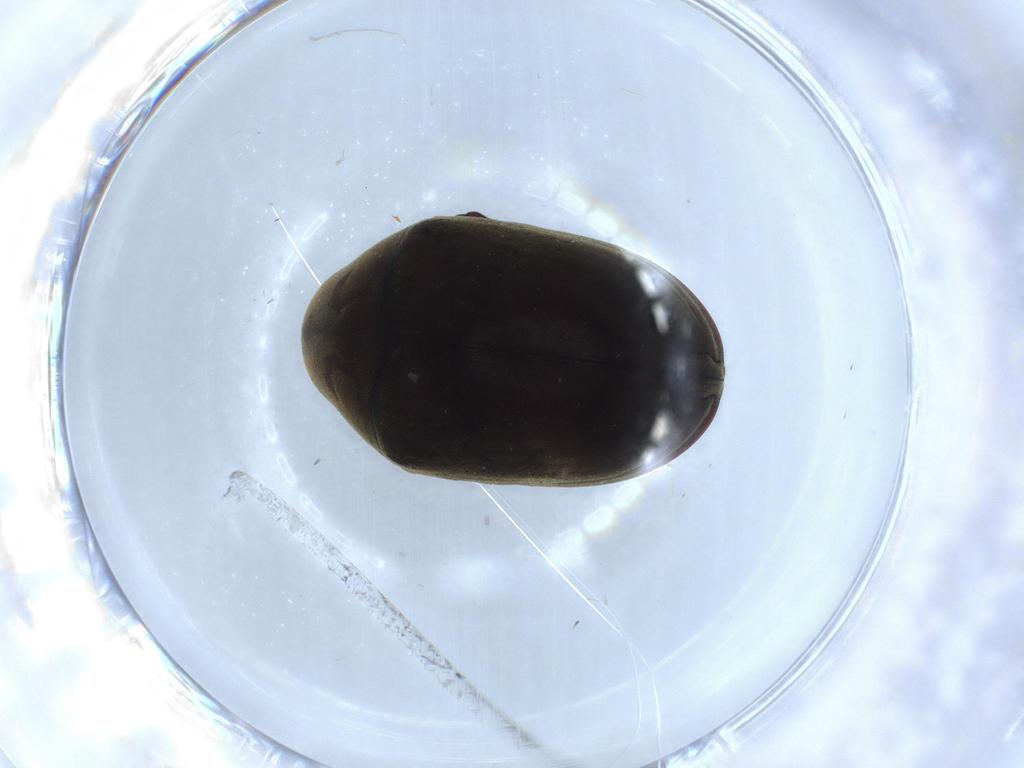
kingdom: Animalia
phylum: Arthropoda
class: Insecta
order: Coleoptera
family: Ptinidae
